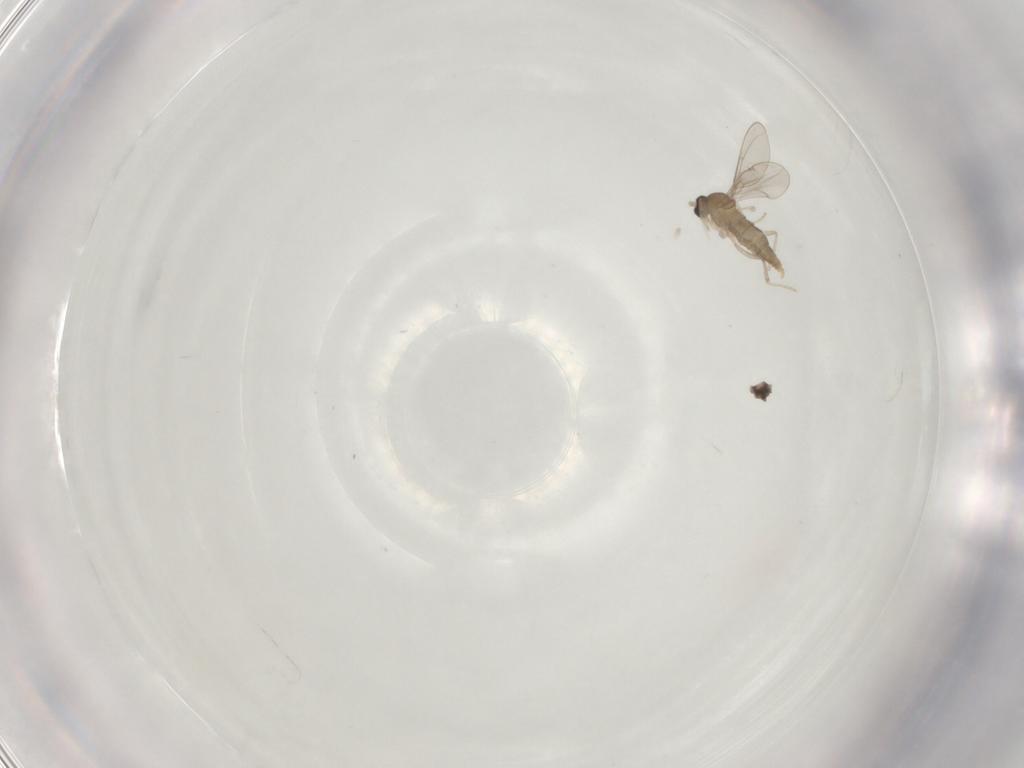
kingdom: Animalia
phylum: Arthropoda
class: Insecta
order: Diptera
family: Cecidomyiidae
